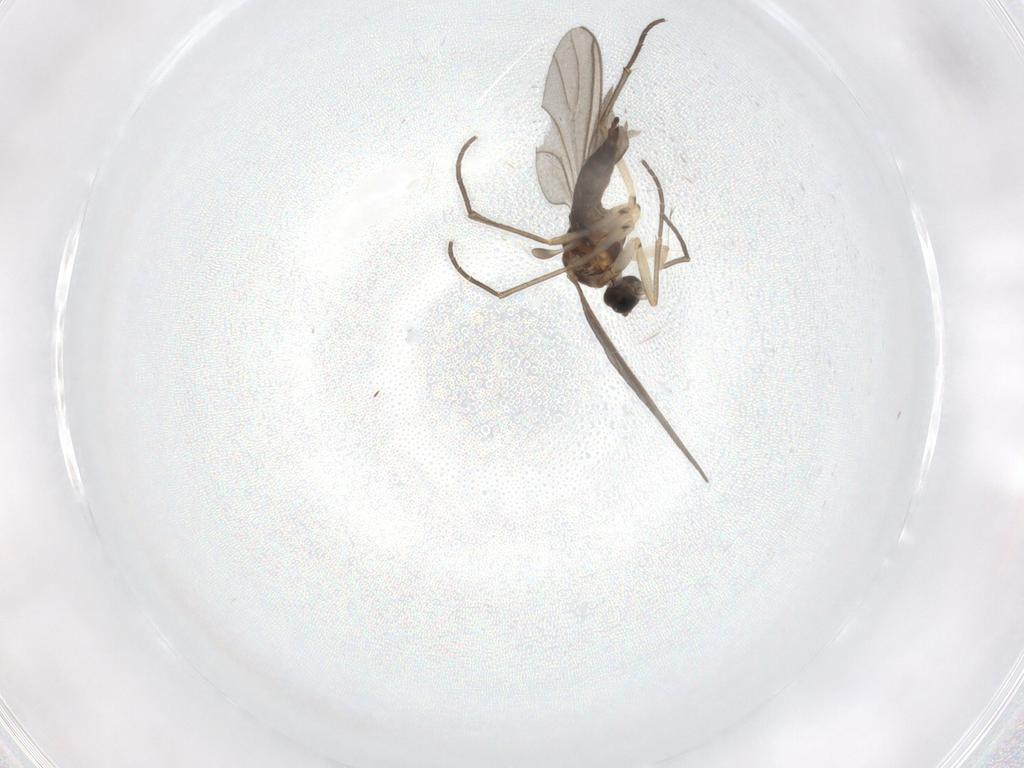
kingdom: Animalia
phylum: Arthropoda
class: Insecta
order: Diptera
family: Sciaridae
